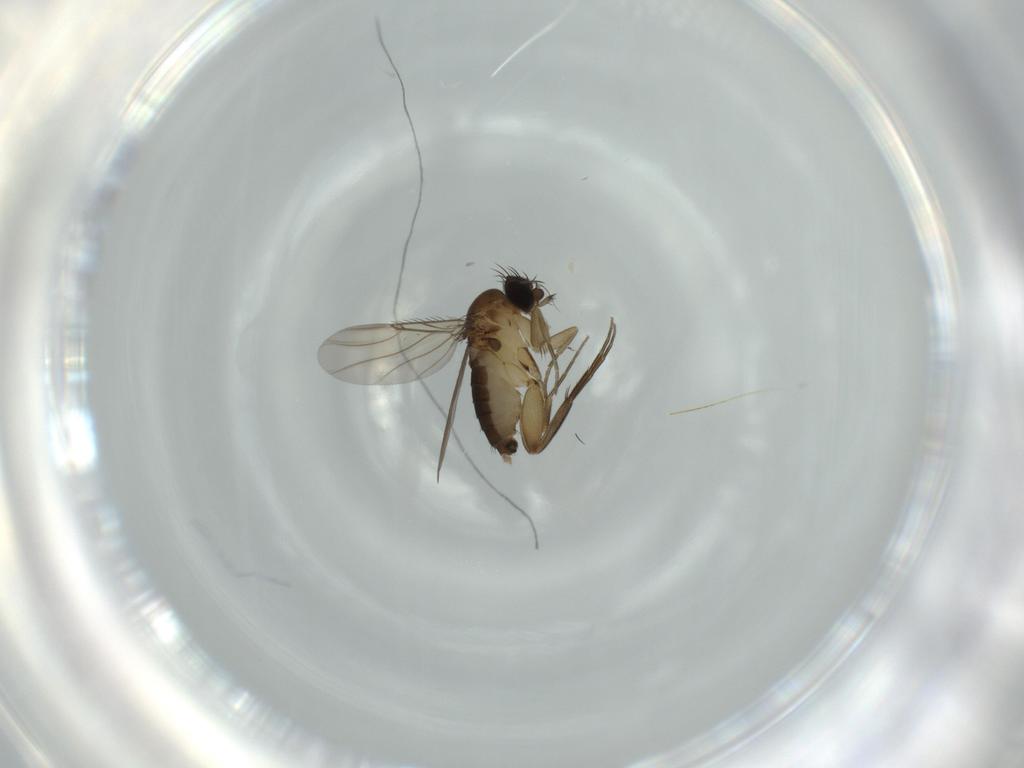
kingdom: Animalia
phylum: Arthropoda
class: Insecta
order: Diptera
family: Phoridae
